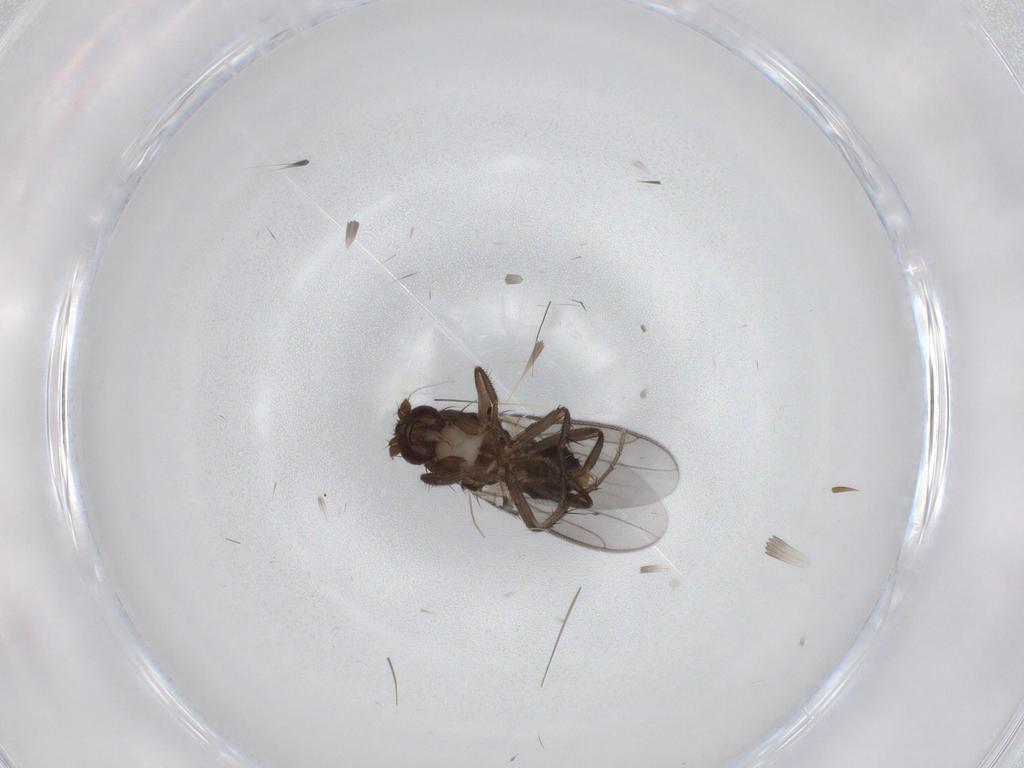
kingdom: Animalia
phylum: Arthropoda
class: Insecta
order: Diptera
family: Sphaeroceridae
